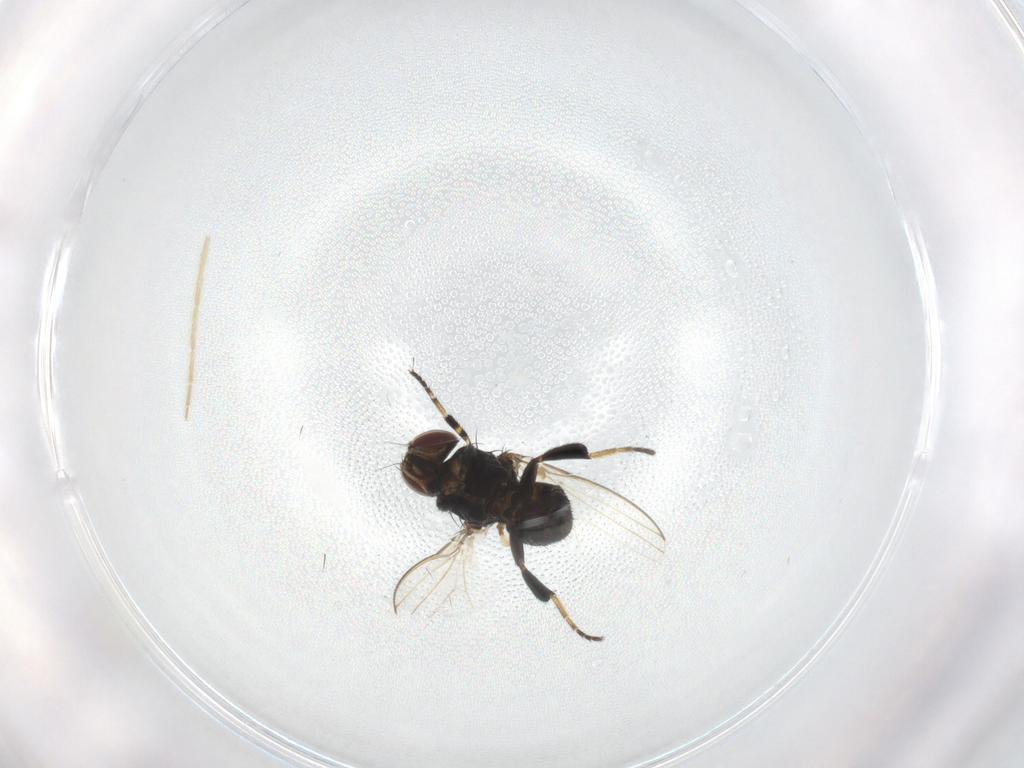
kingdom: Animalia
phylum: Arthropoda
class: Insecta
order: Diptera
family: Milichiidae
